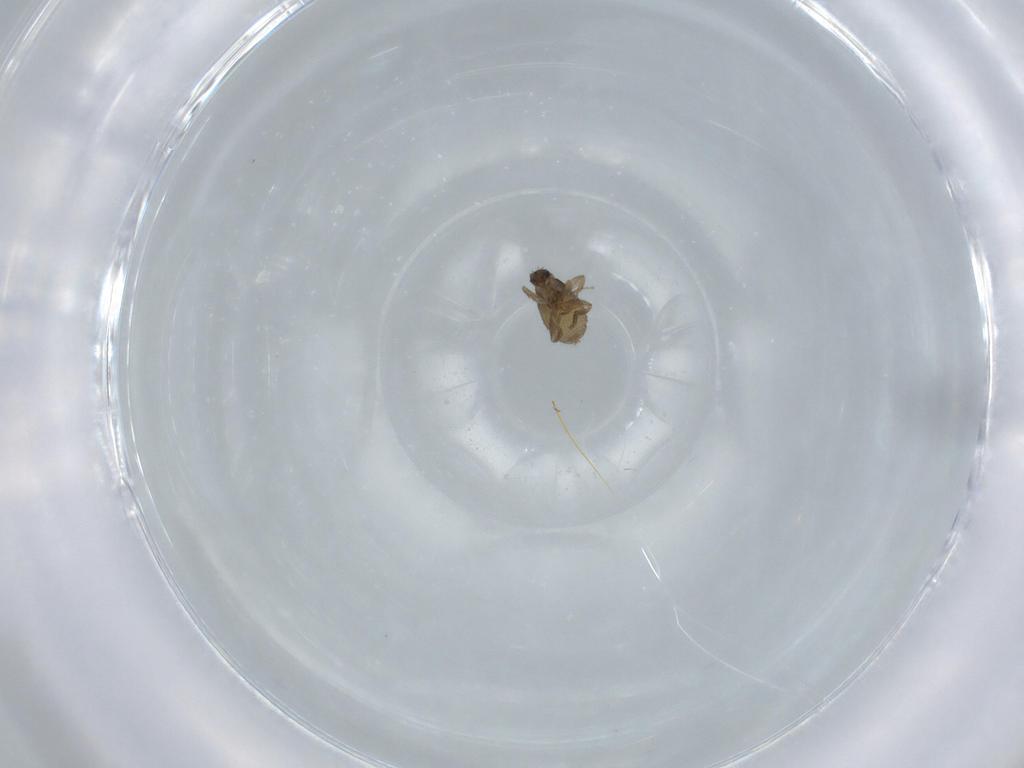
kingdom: Animalia
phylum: Arthropoda
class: Insecta
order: Diptera
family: Phoridae
